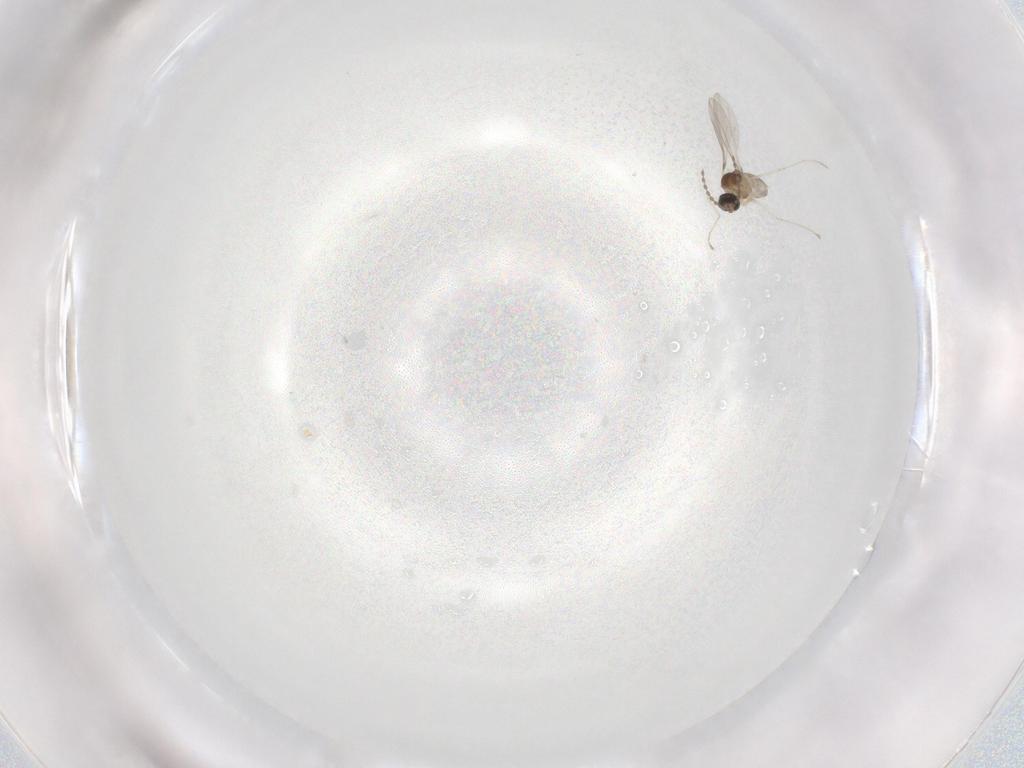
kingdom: Animalia
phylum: Arthropoda
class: Insecta
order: Diptera
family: Cecidomyiidae
